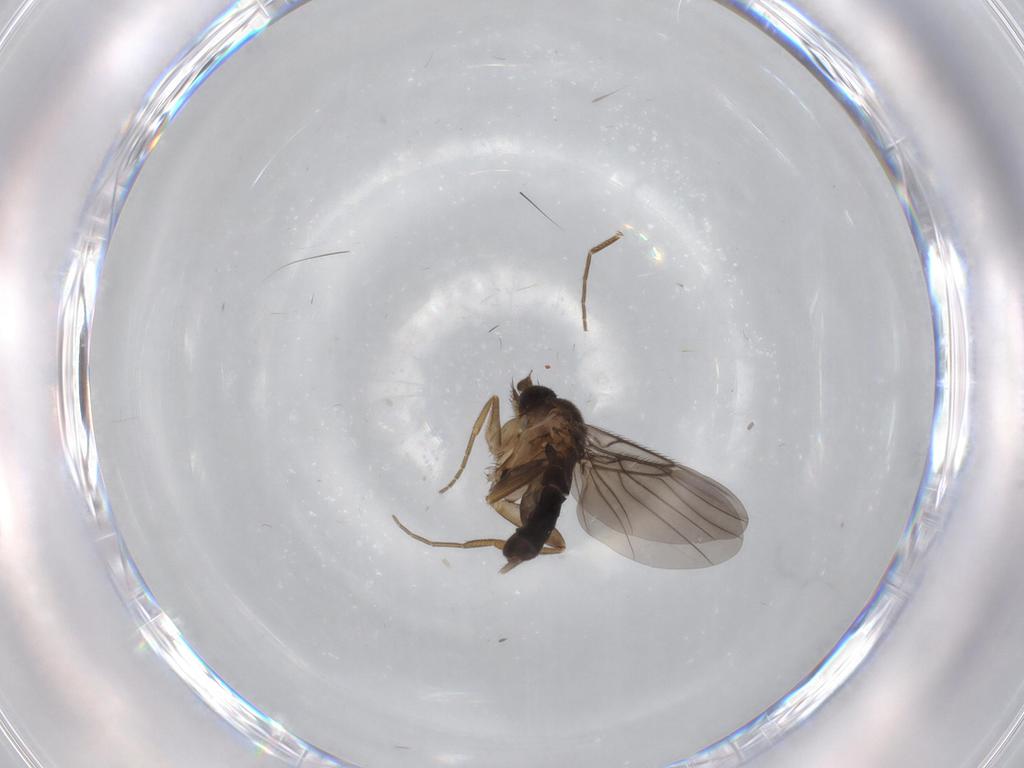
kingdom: Animalia
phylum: Arthropoda
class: Insecta
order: Diptera
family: Phoridae
